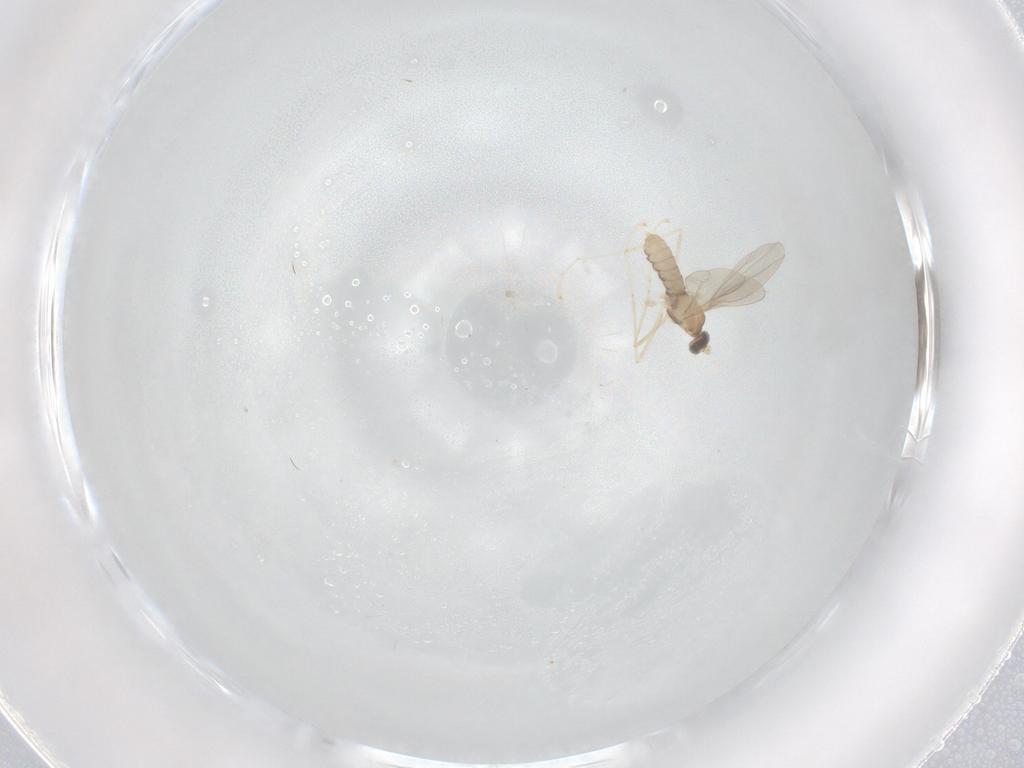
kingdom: Animalia
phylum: Arthropoda
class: Insecta
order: Diptera
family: Cecidomyiidae
